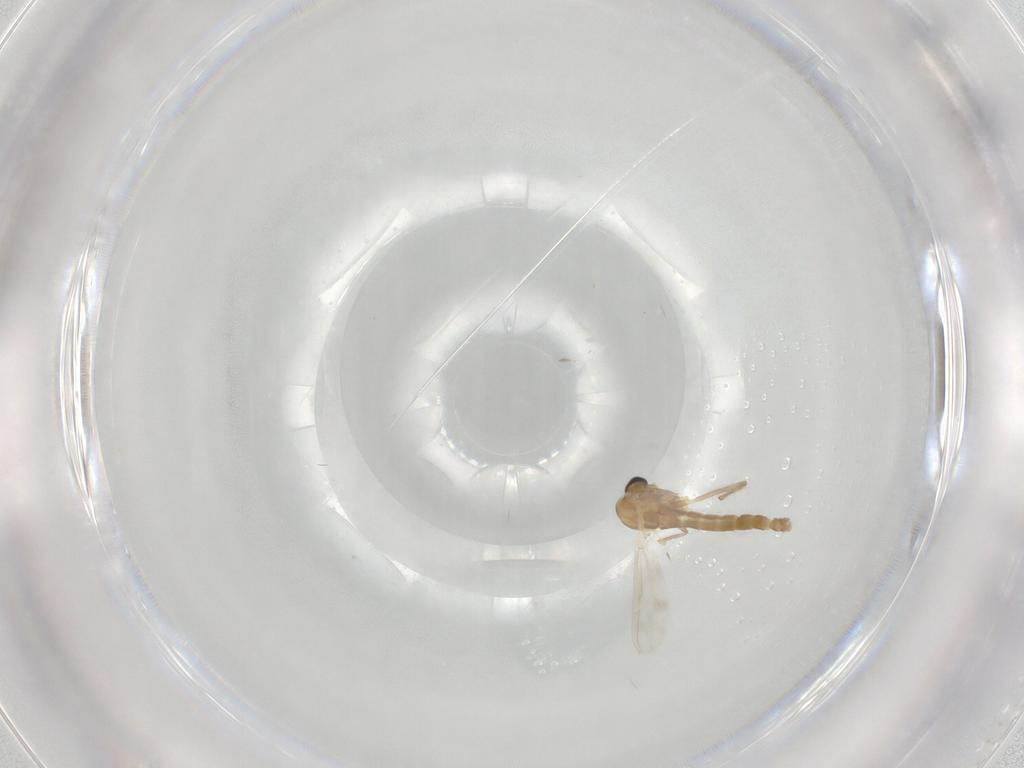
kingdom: Animalia
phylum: Arthropoda
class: Insecta
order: Diptera
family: Chironomidae
